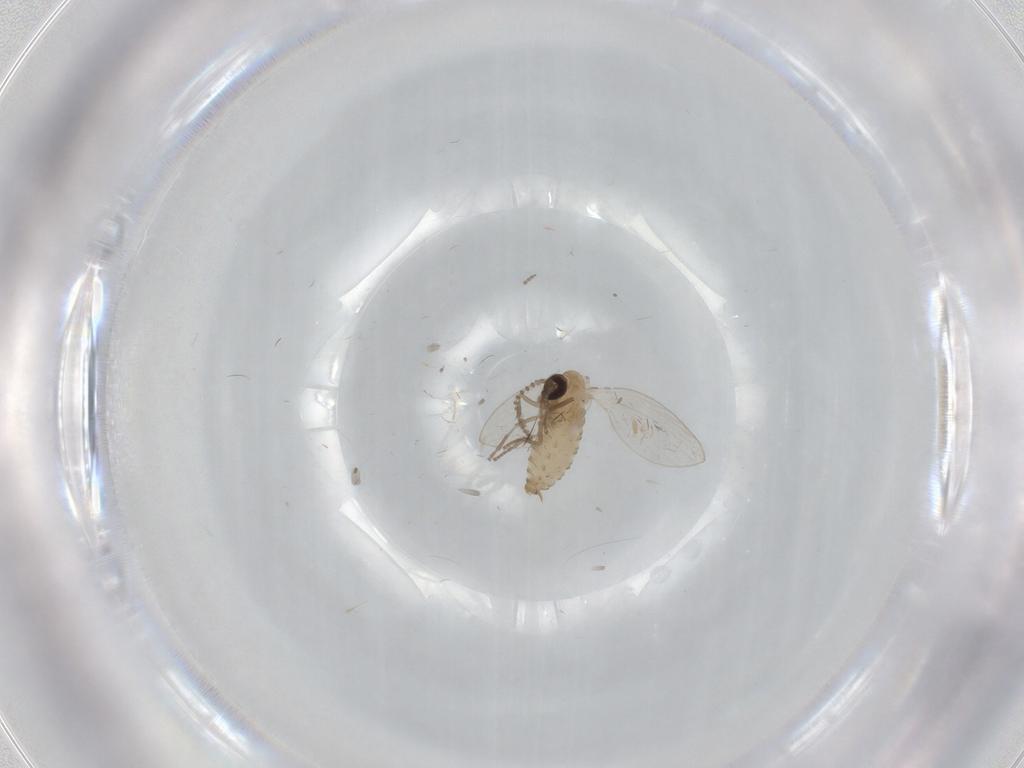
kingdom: Animalia
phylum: Arthropoda
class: Insecta
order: Diptera
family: Psychodidae
